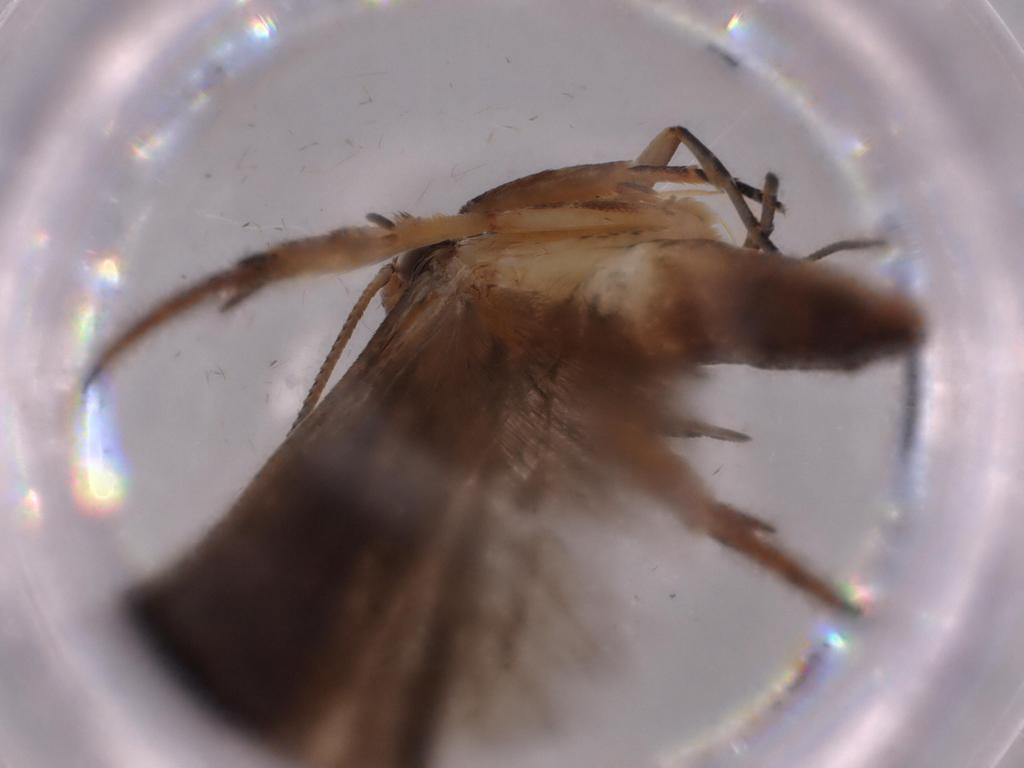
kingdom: Animalia
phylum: Arthropoda
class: Insecta
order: Diptera
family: Lauxaniidae
